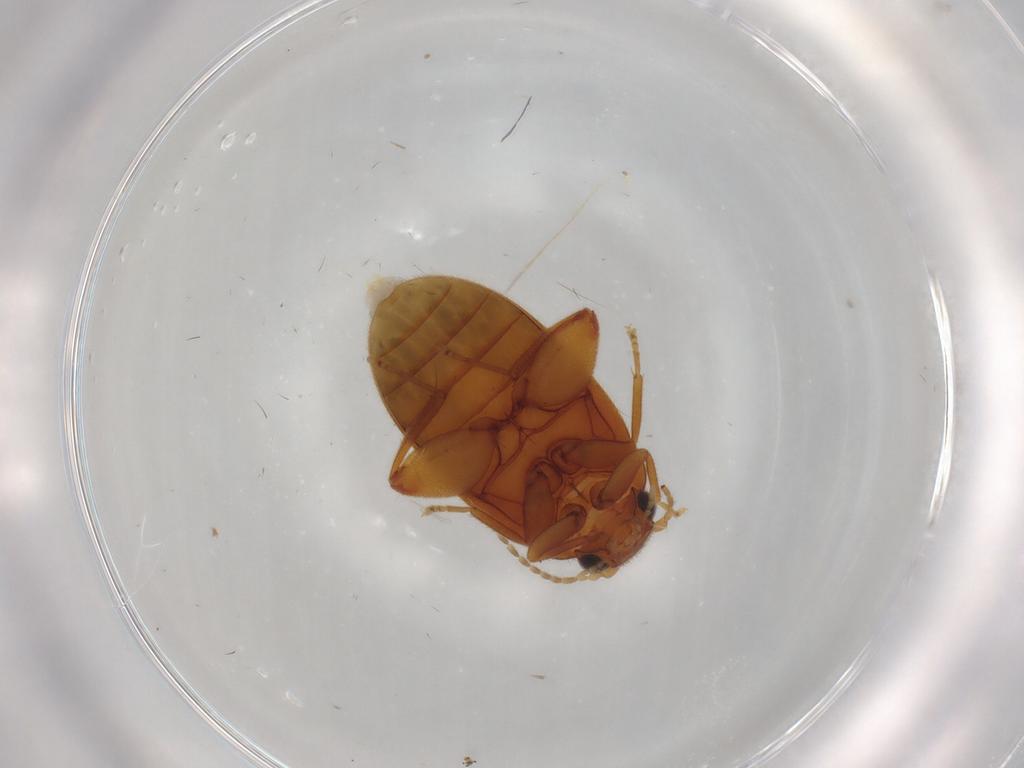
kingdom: Animalia
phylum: Arthropoda
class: Insecta
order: Coleoptera
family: Scirtidae
